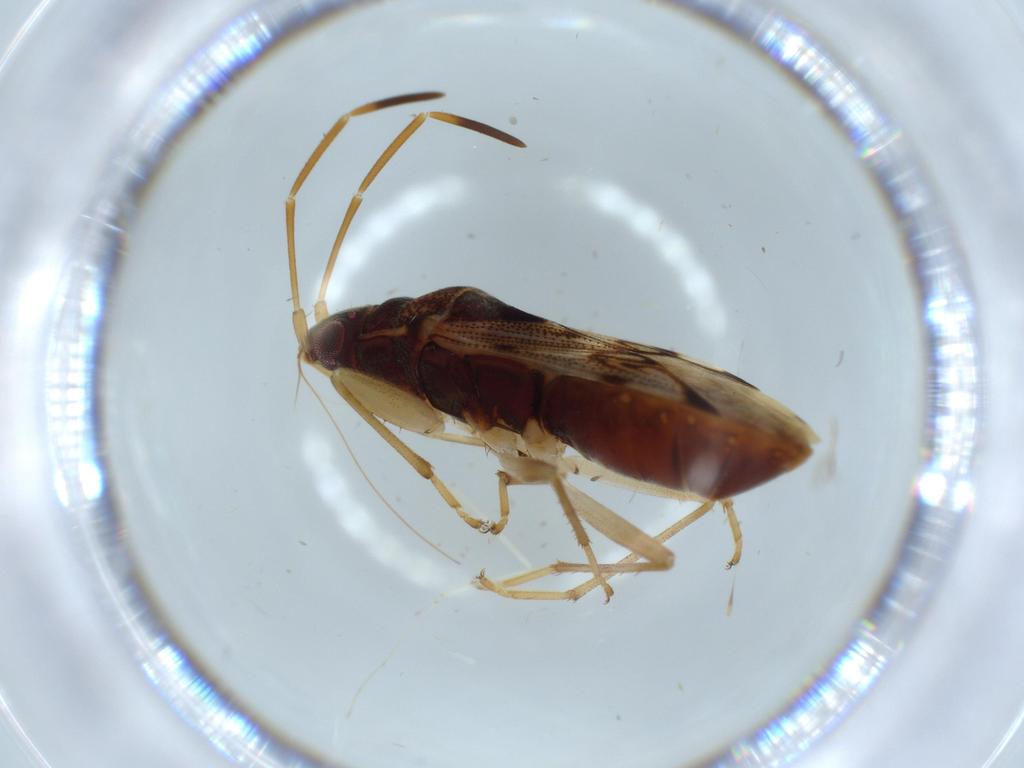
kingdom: Animalia
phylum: Arthropoda
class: Insecta
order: Hemiptera
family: Rhyparochromidae
